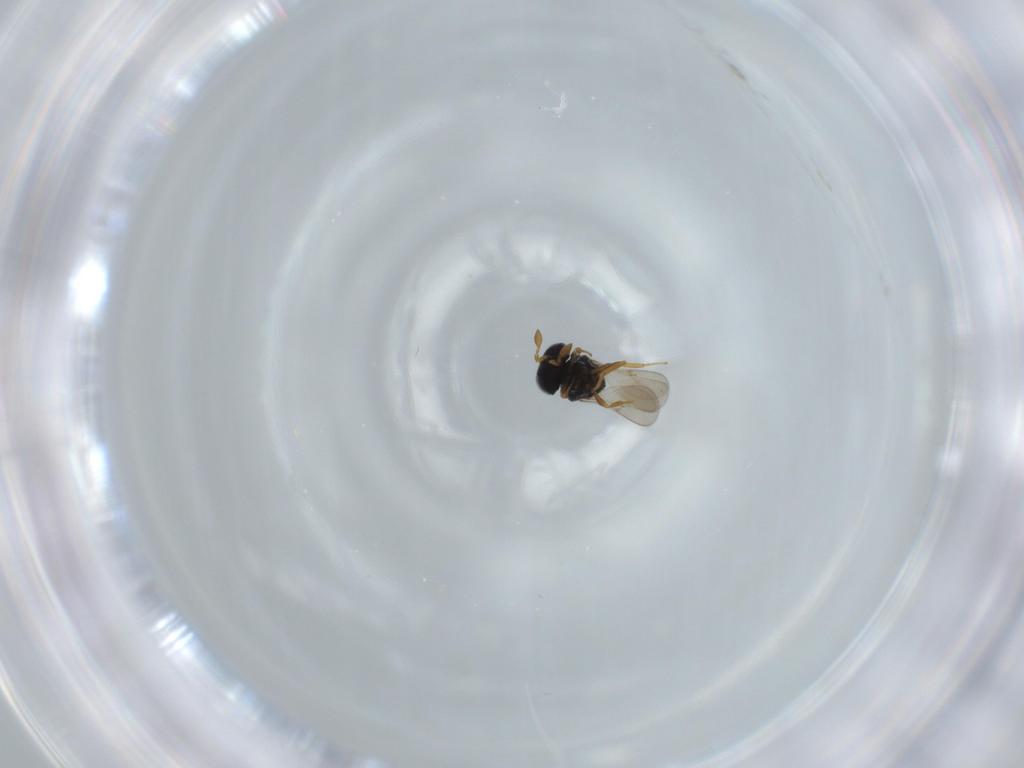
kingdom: Animalia
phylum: Arthropoda
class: Insecta
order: Hymenoptera
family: Scelionidae
